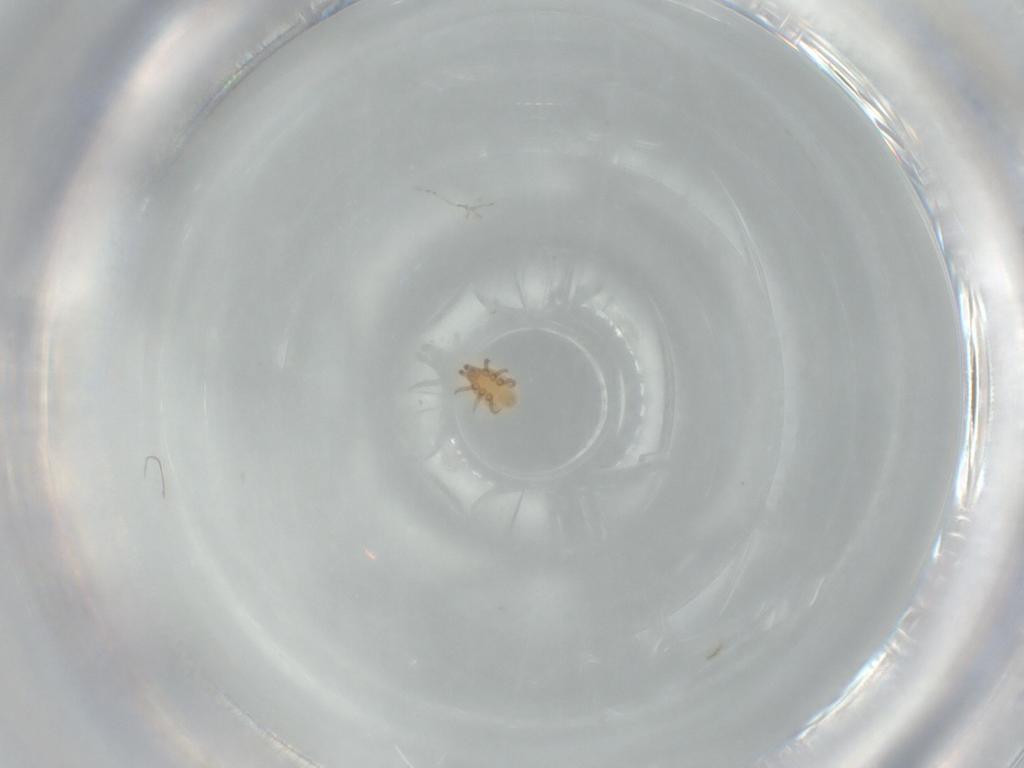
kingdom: Animalia
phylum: Arthropoda
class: Arachnida
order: Mesostigmata
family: Dinychidae
